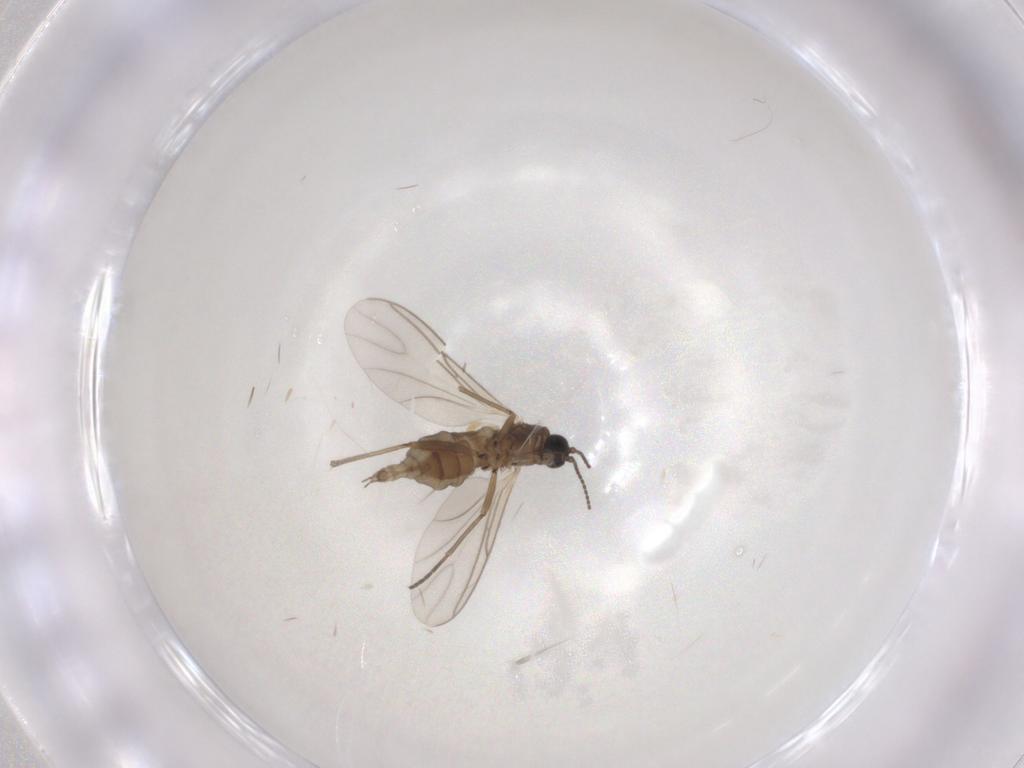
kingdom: Animalia
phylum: Arthropoda
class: Insecta
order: Diptera
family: Sciaridae
